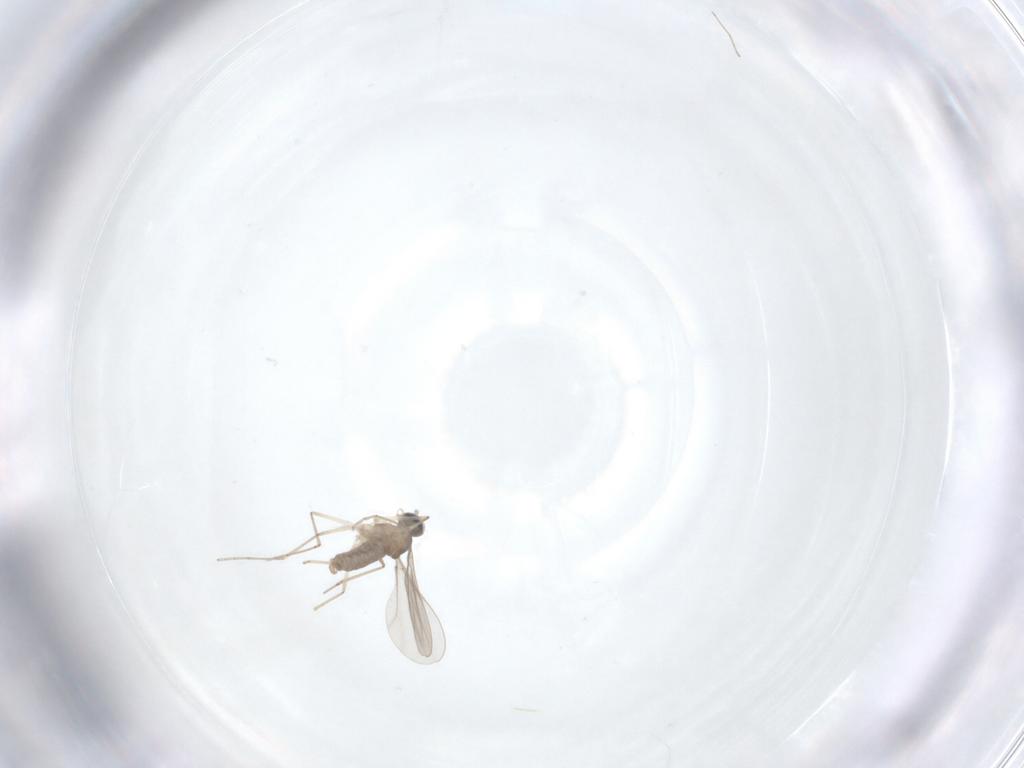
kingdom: Animalia
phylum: Arthropoda
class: Insecta
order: Diptera
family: Cecidomyiidae
